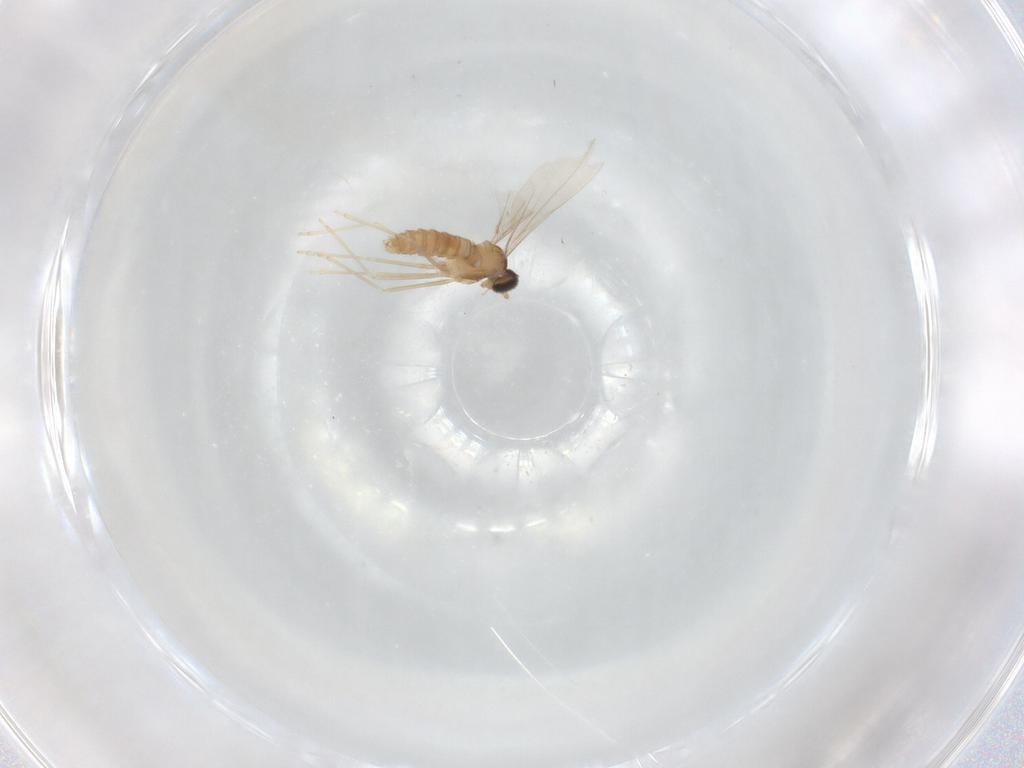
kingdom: Animalia
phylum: Arthropoda
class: Insecta
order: Diptera
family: Cecidomyiidae
